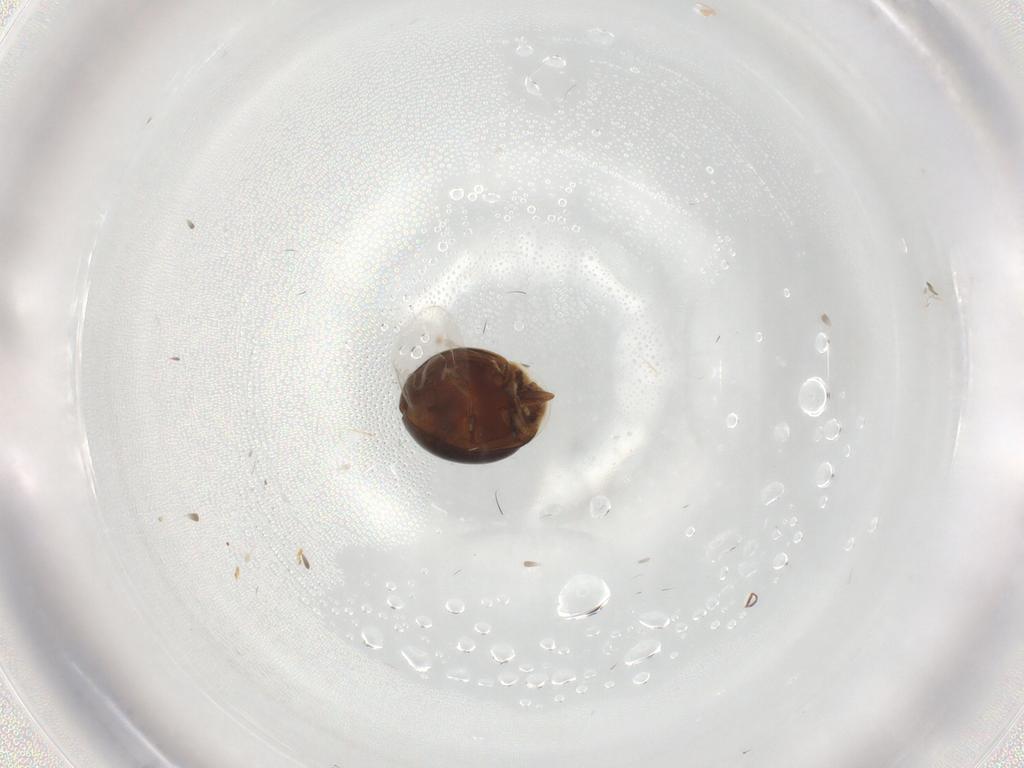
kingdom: Animalia
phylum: Arthropoda
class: Insecta
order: Coleoptera
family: Corylophidae
